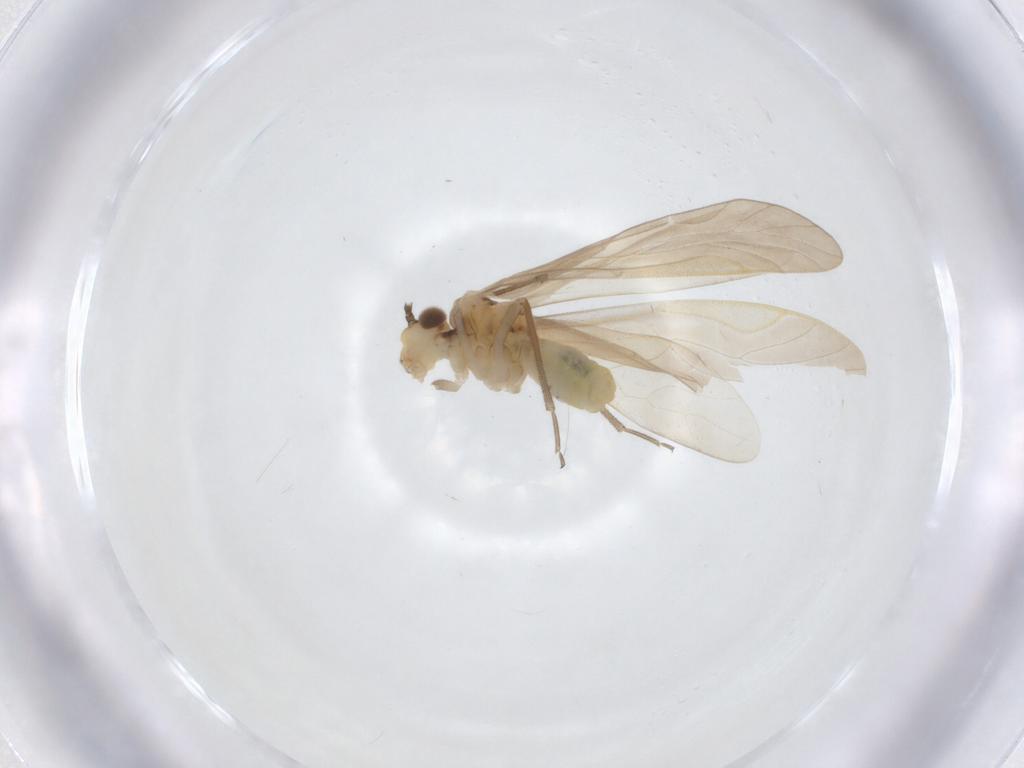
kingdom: Animalia
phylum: Arthropoda
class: Insecta
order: Psocodea
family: Caeciliusidae
